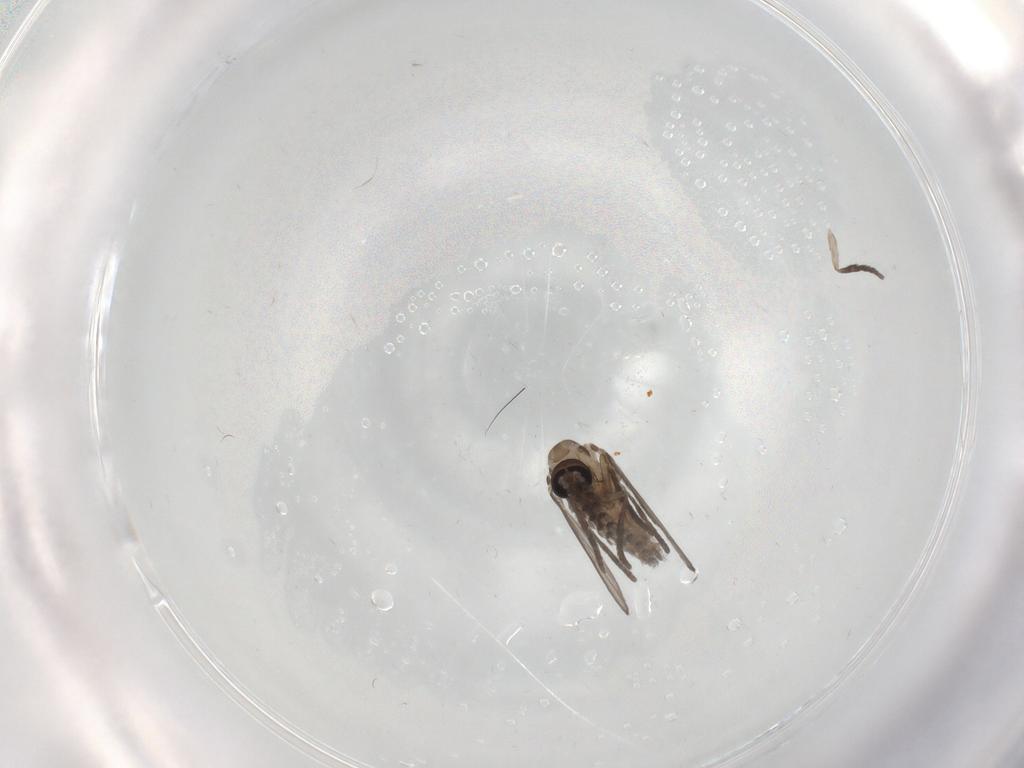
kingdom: Animalia
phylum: Arthropoda
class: Insecta
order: Diptera
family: Psychodidae
